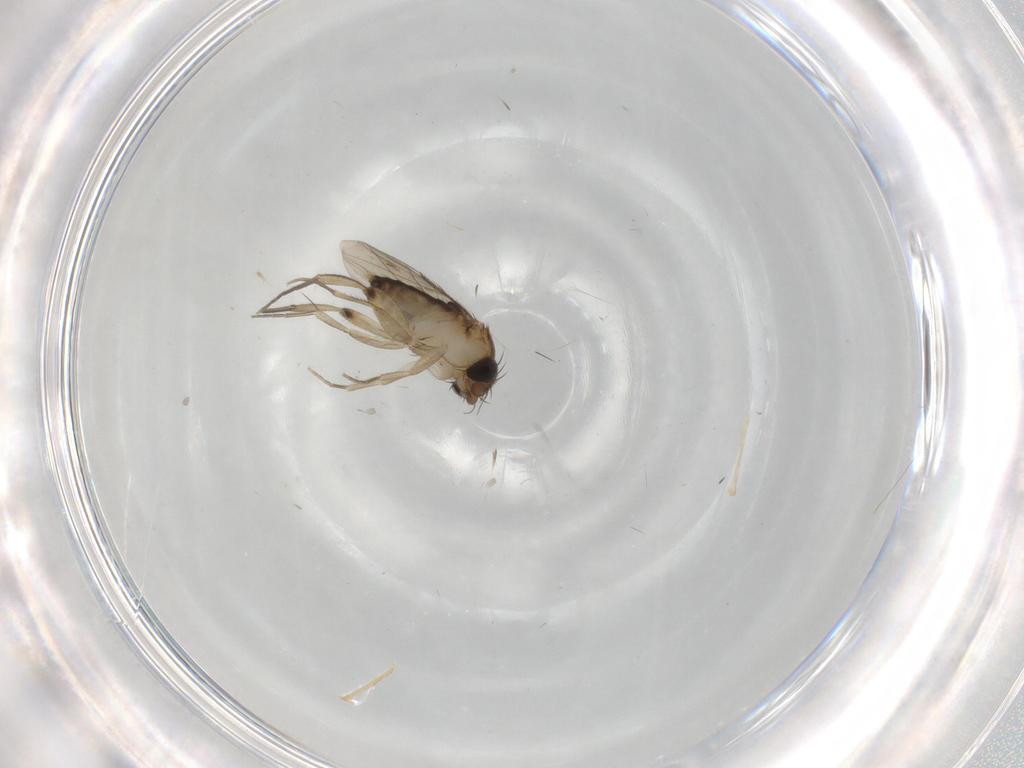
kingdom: Animalia
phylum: Arthropoda
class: Insecta
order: Diptera
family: Phoridae
